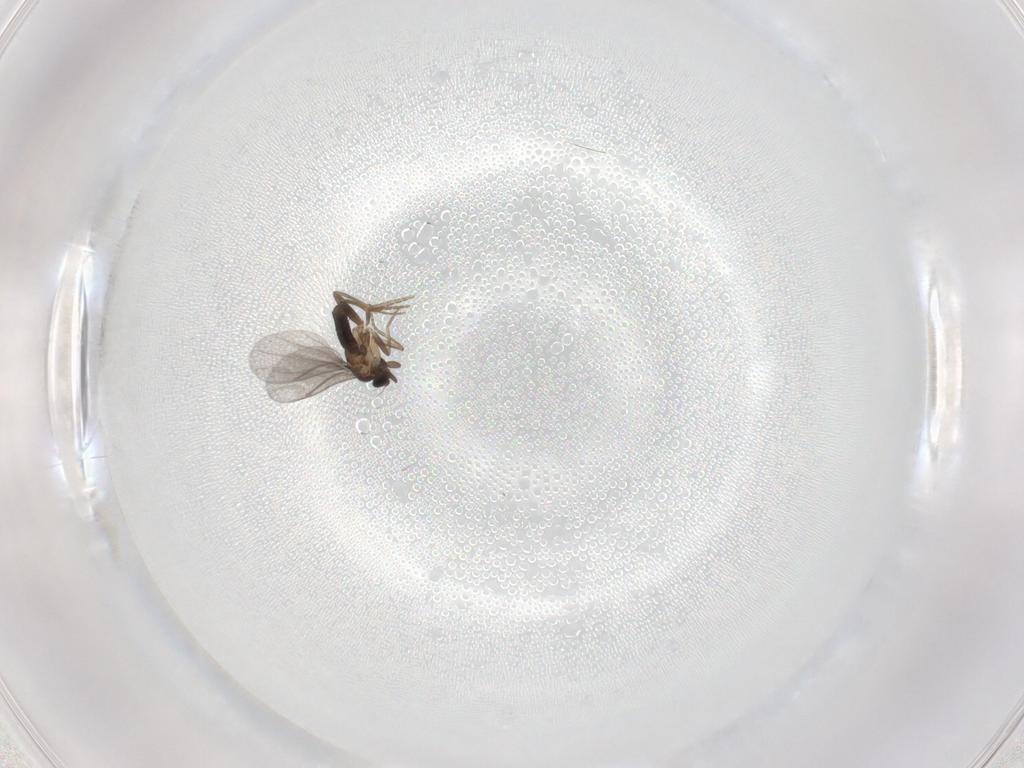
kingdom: Animalia
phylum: Arthropoda
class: Insecta
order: Diptera
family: Phoridae
